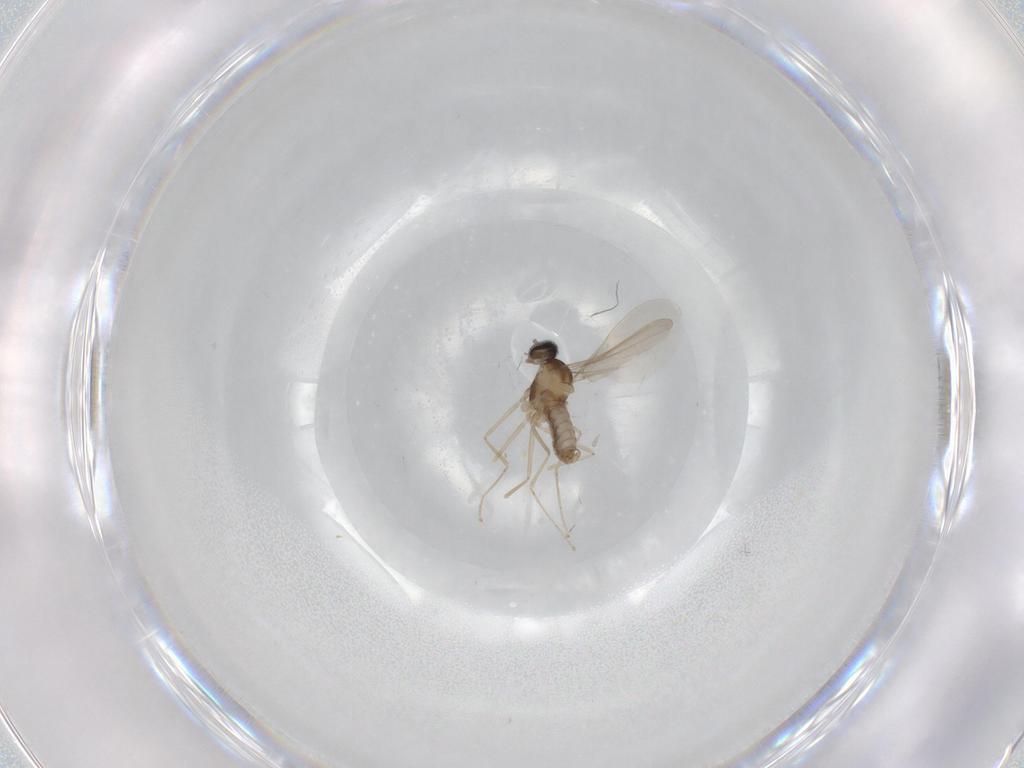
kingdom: Animalia
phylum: Arthropoda
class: Insecta
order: Diptera
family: Cecidomyiidae
